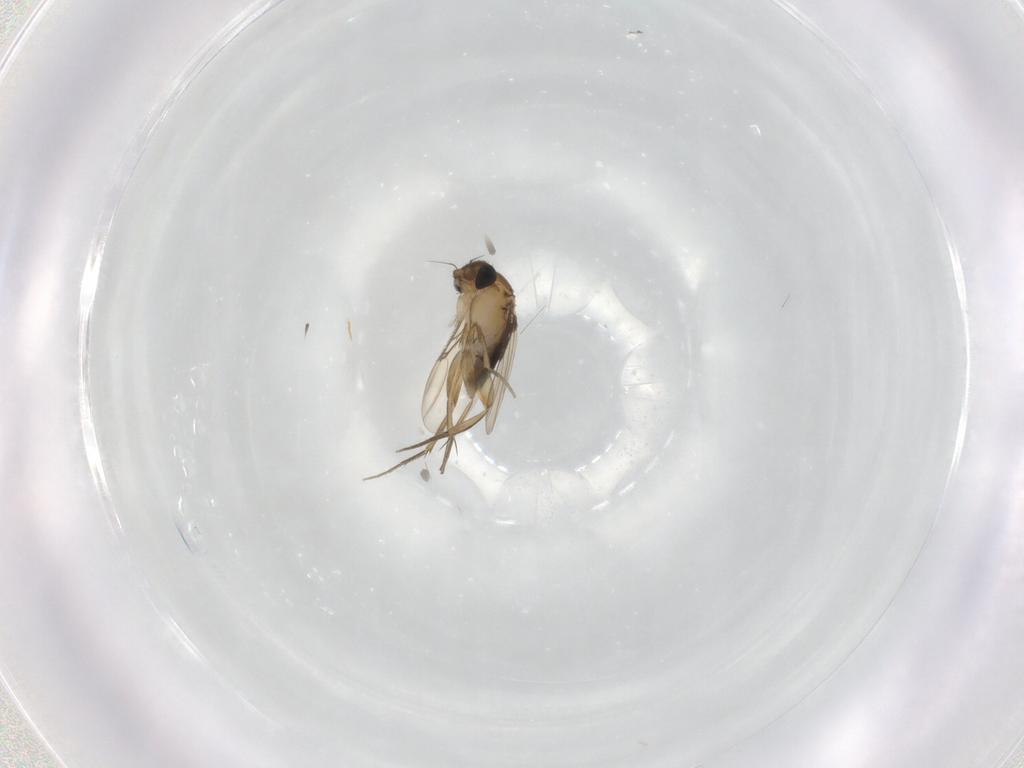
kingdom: Animalia
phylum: Arthropoda
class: Insecta
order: Diptera
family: Phoridae
